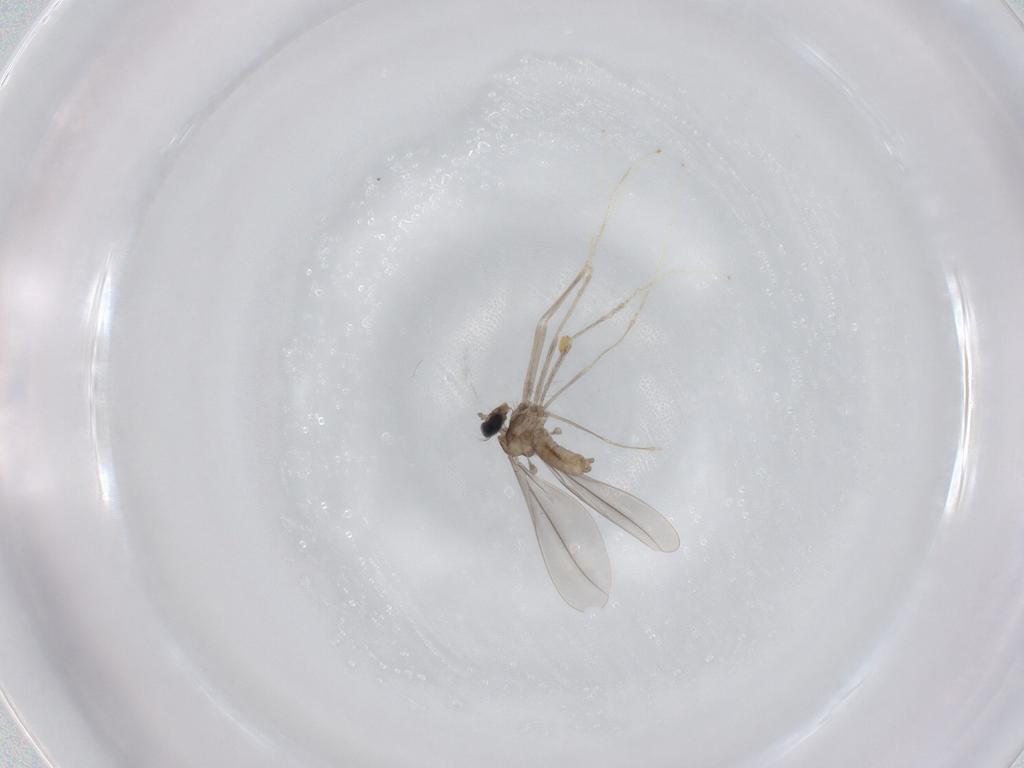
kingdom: Animalia
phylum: Arthropoda
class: Insecta
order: Diptera
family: Cecidomyiidae
